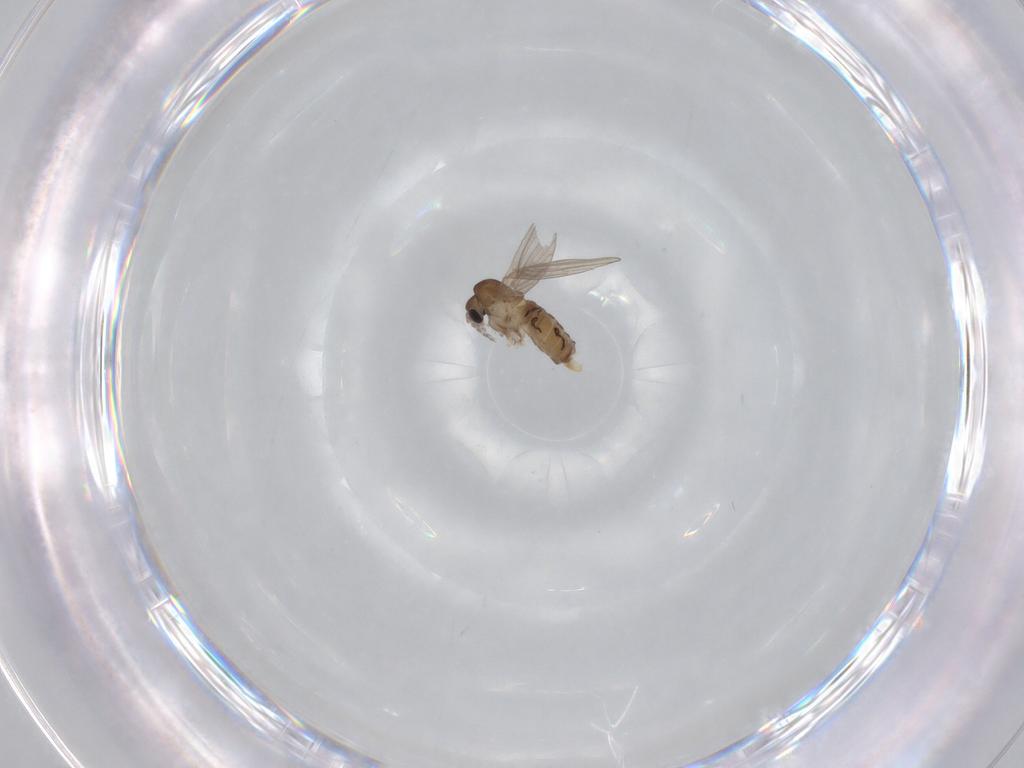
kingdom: Animalia
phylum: Arthropoda
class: Insecta
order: Diptera
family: Psychodidae
